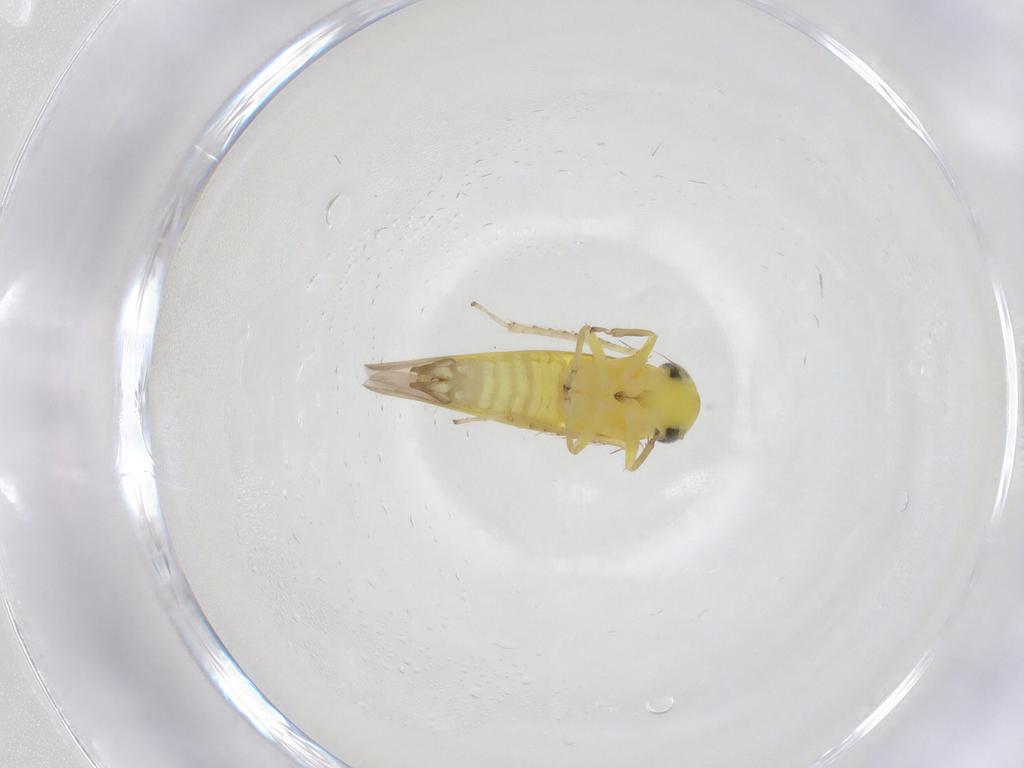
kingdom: Animalia
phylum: Arthropoda
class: Insecta
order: Hemiptera
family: Cicadellidae
